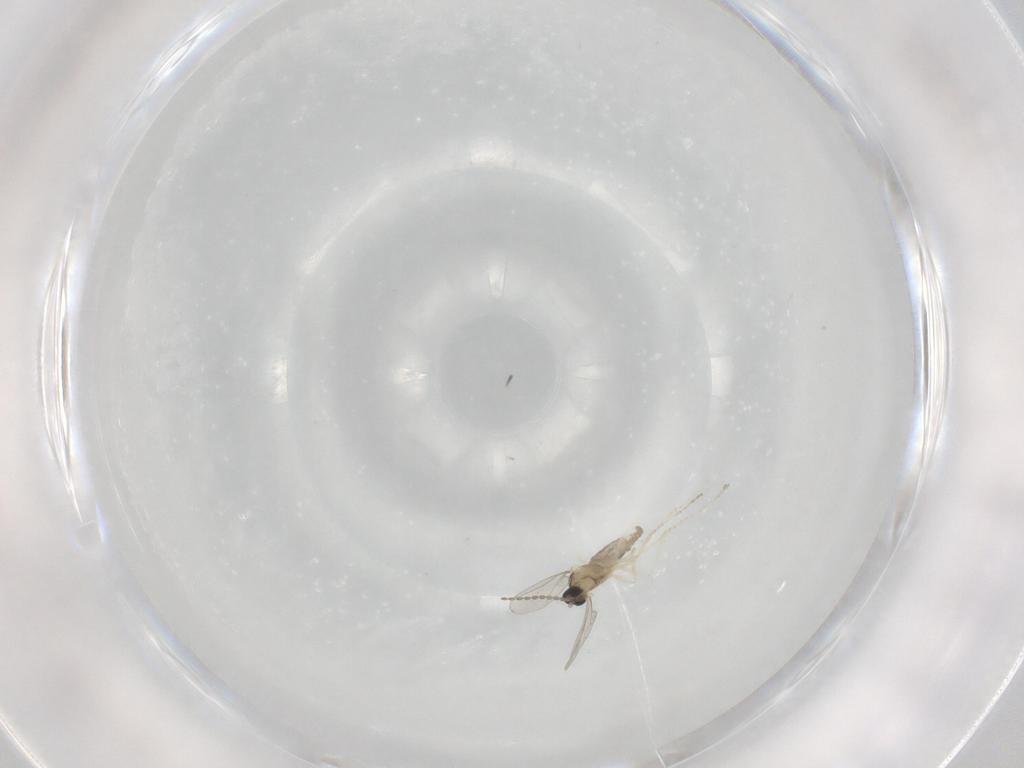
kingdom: Animalia
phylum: Arthropoda
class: Insecta
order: Diptera
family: Cecidomyiidae
